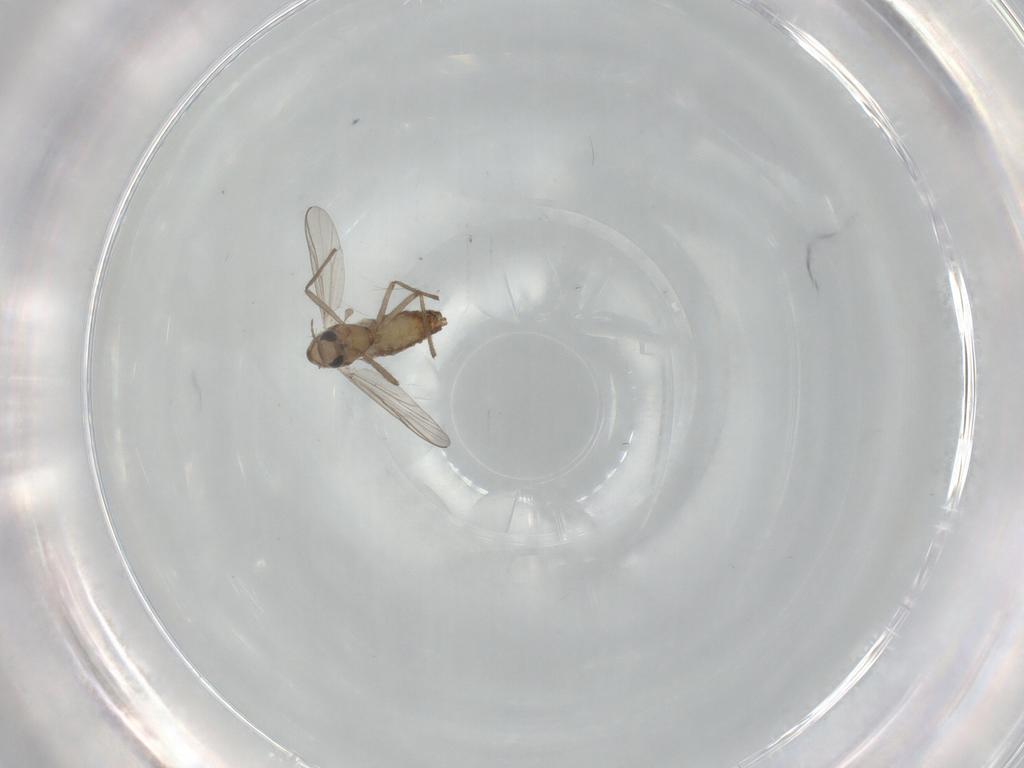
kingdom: Animalia
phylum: Arthropoda
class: Insecta
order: Diptera
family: Chironomidae
